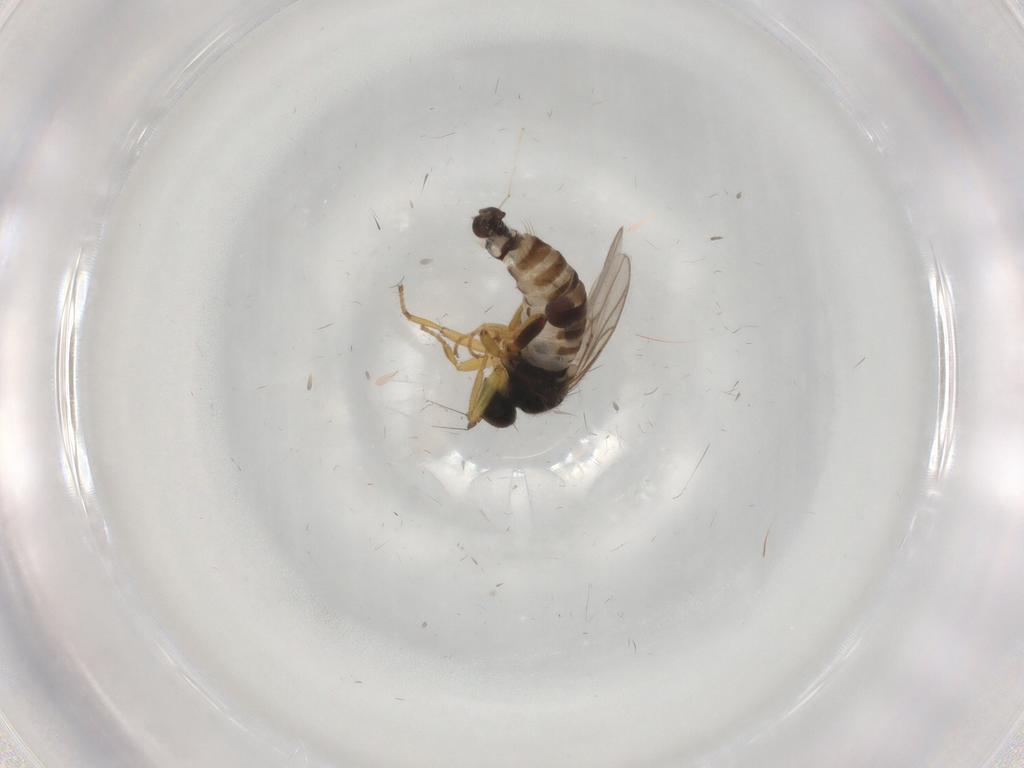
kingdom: Animalia
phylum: Arthropoda
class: Insecta
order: Diptera
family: Hybotidae
